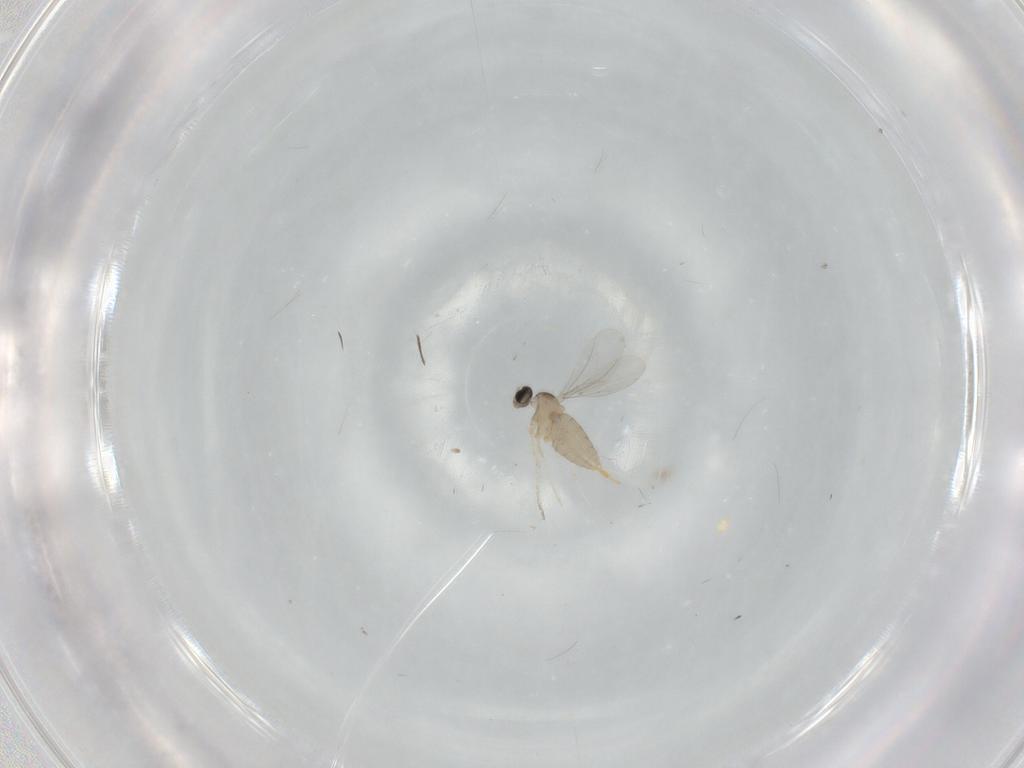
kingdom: Animalia
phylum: Arthropoda
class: Insecta
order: Diptera
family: Cecidomyiidae
